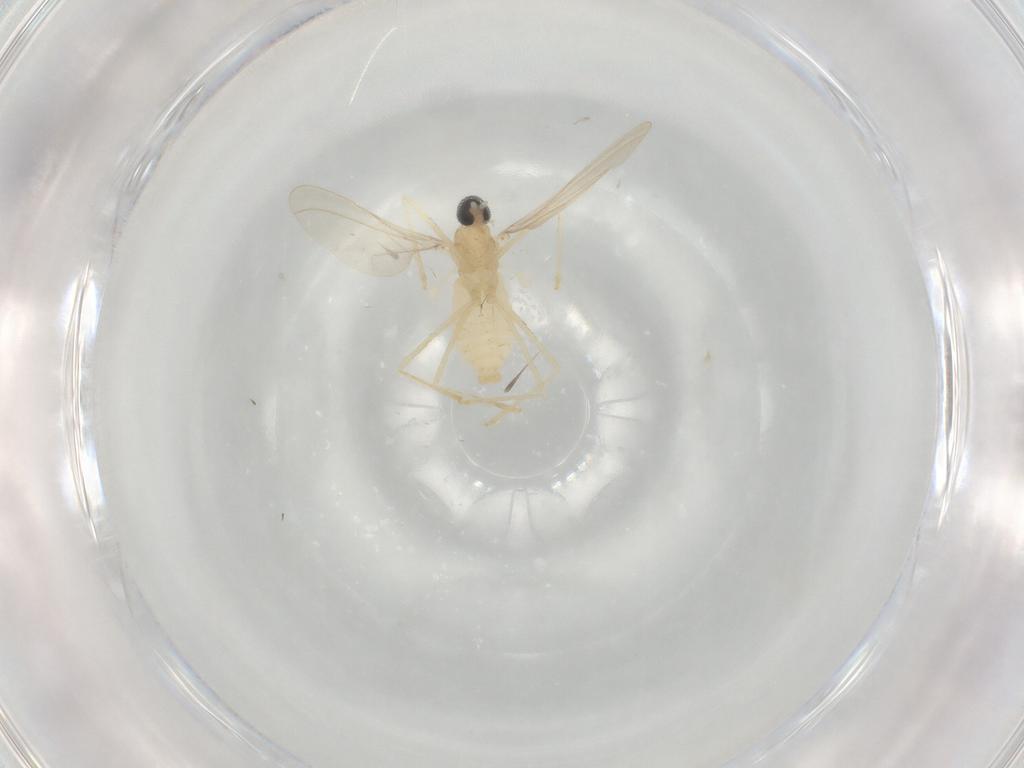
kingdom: Animalia
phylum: Arthropoda
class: Insecta
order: Diptera
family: Cecidomyiidae
